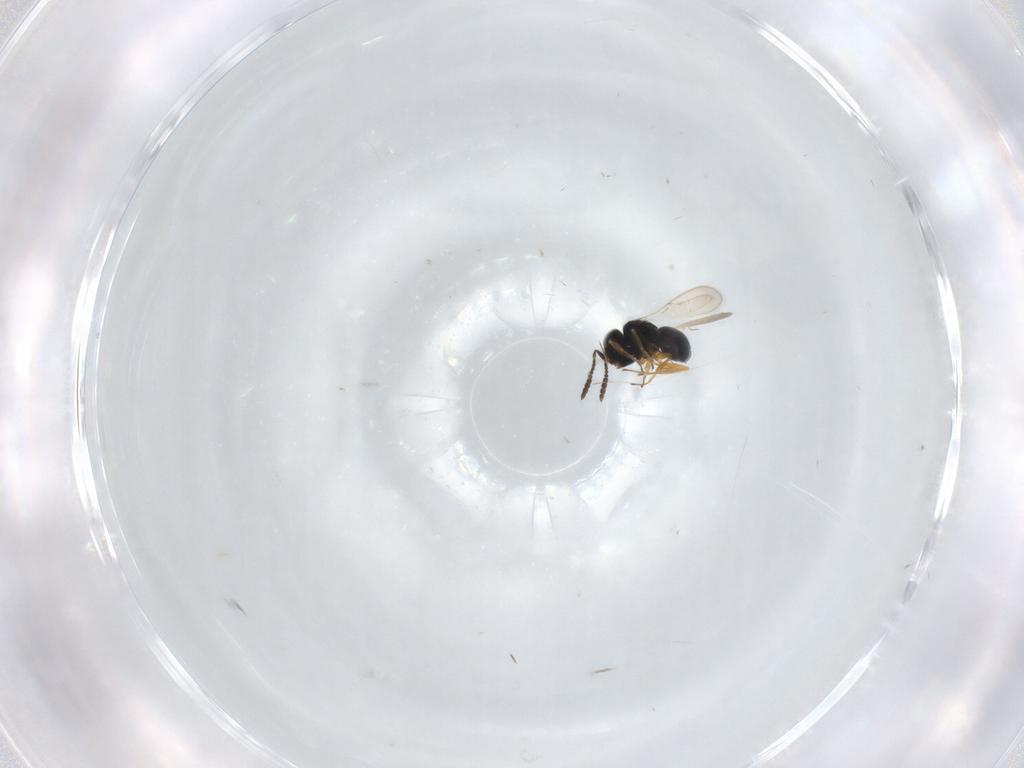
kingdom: Animalia
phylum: Arthropoda
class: Insecta
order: Hymenoptera
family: Scelionidae
